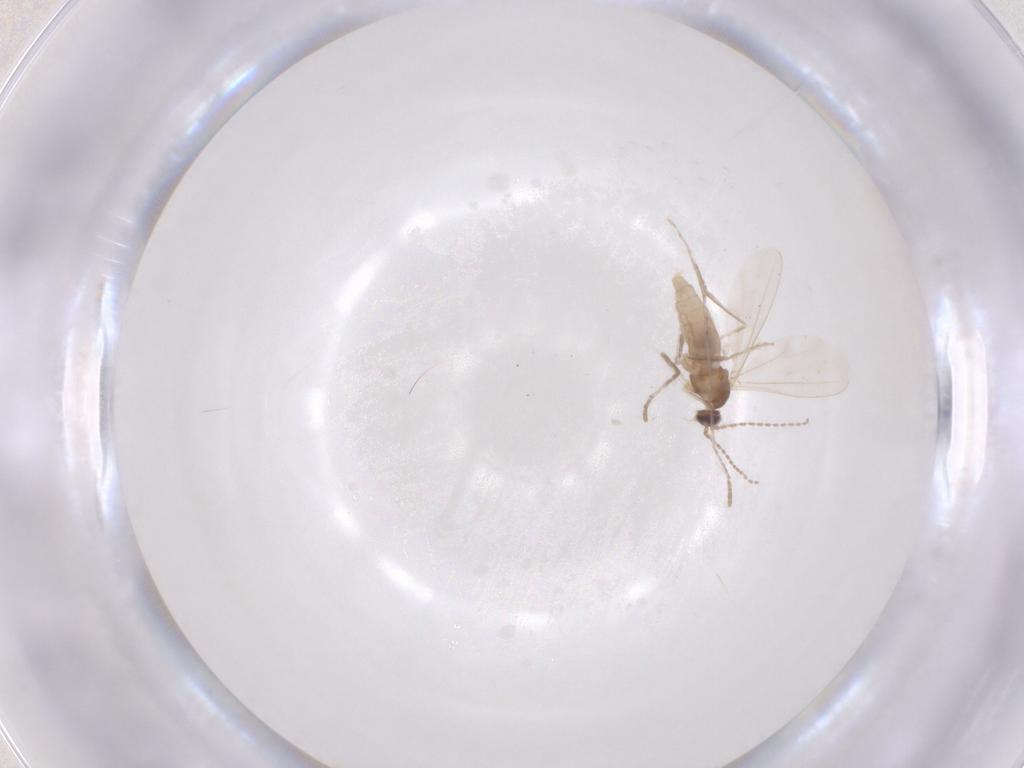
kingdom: Animalia
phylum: Arthropoda
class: Insecta
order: Diptera
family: Cecidomyiidae
